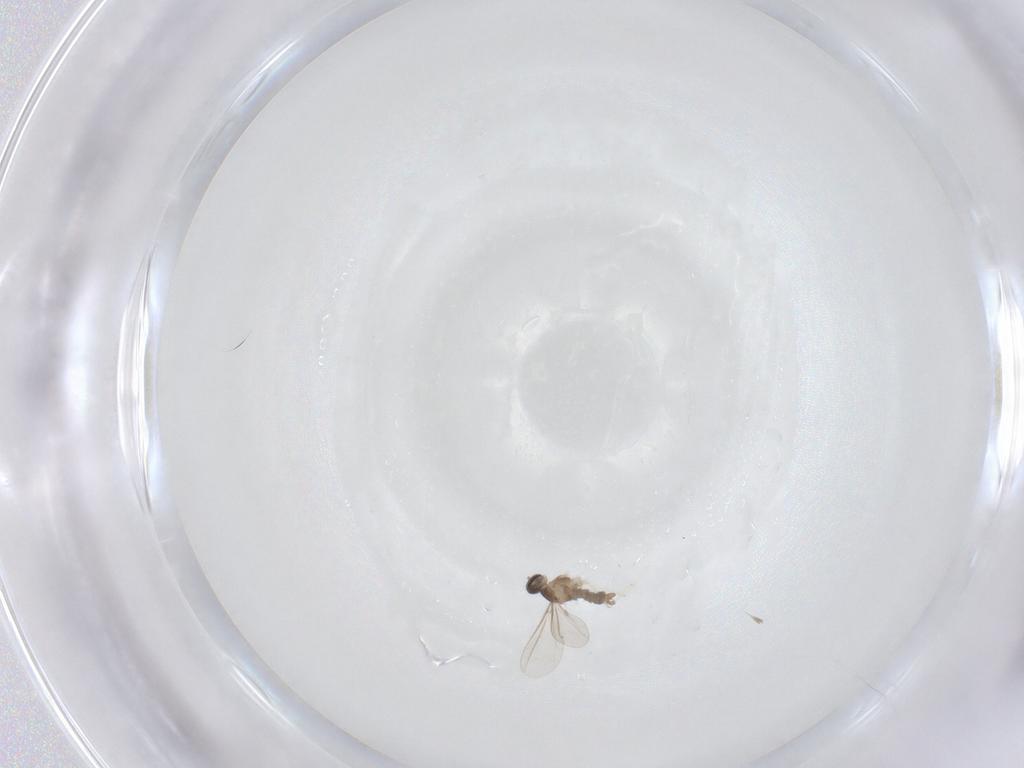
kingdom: Animalia
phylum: Arthropoda
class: Insecta
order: Diptera
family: Cecidomyiidae
